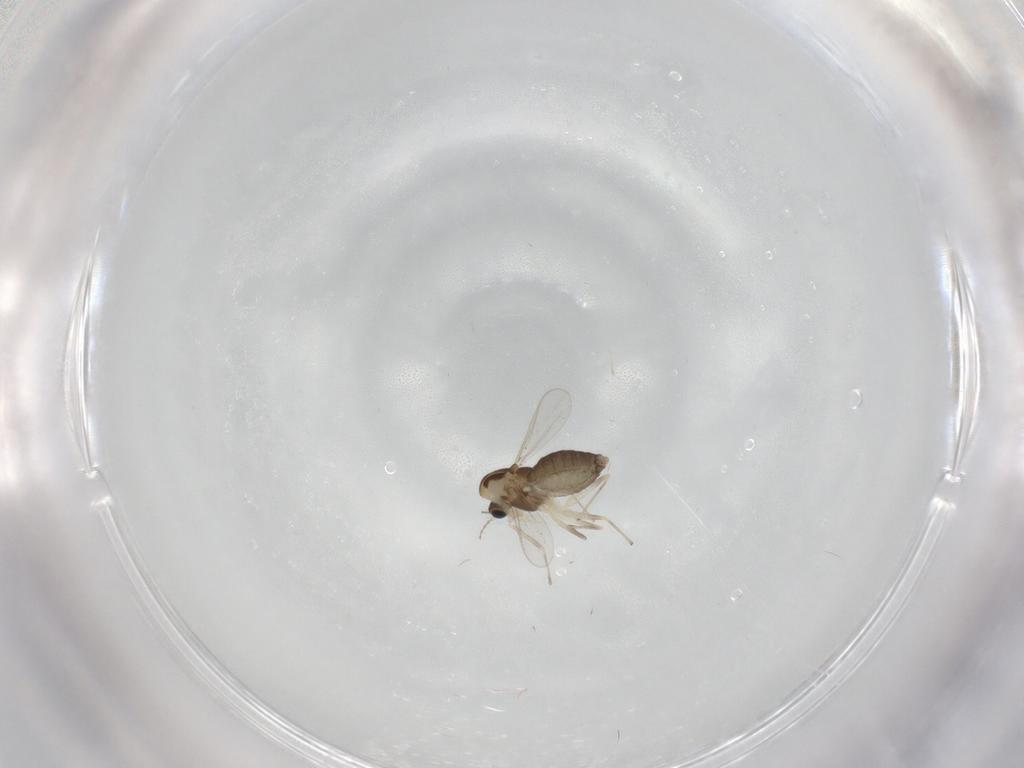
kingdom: Animalia
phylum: Arthropoda
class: Insecta
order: Diptera
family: Chironomidae
